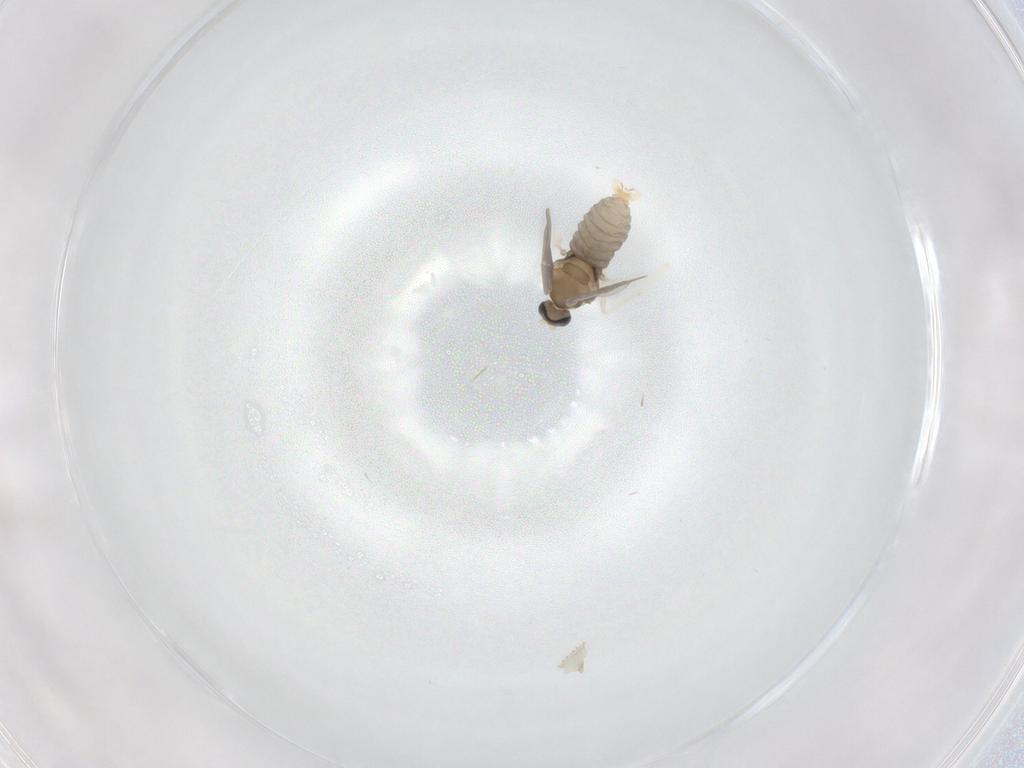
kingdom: Animalia
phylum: Arthropoda
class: Insecta
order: Diptera
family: Cecidomyiidae
